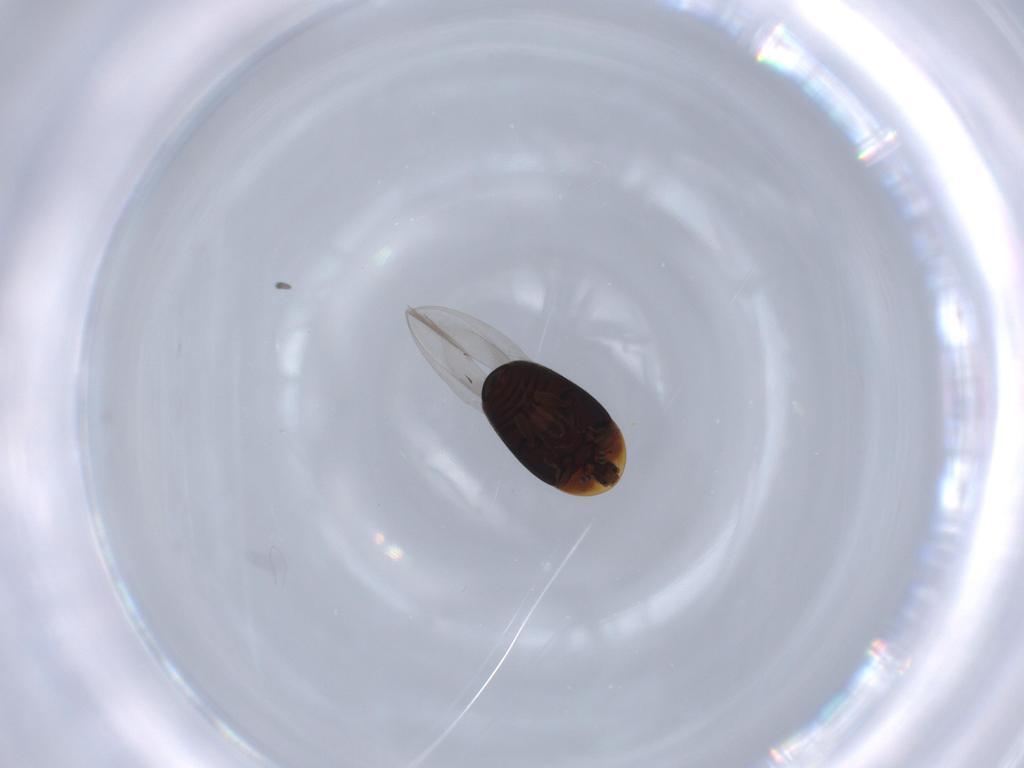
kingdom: Animalia
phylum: Arthropoda
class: Insecta
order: Coleoptera
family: Corylophidae
